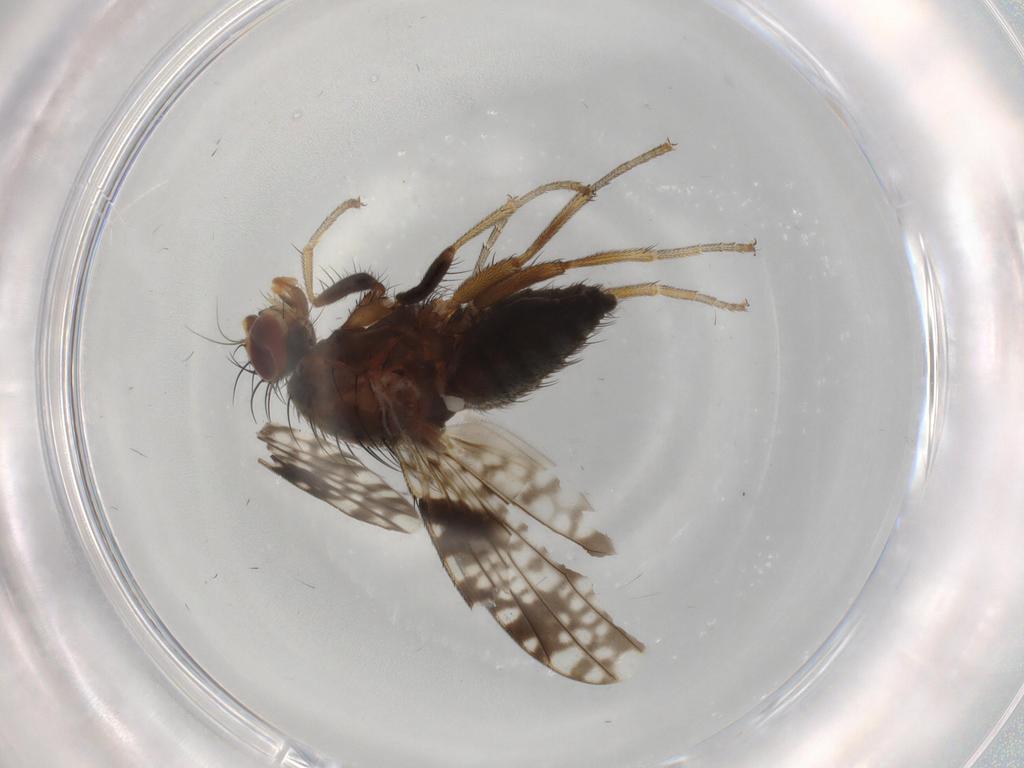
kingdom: Animalia
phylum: Arthropoda
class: Insecta
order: Diptera
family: Tephritidae
